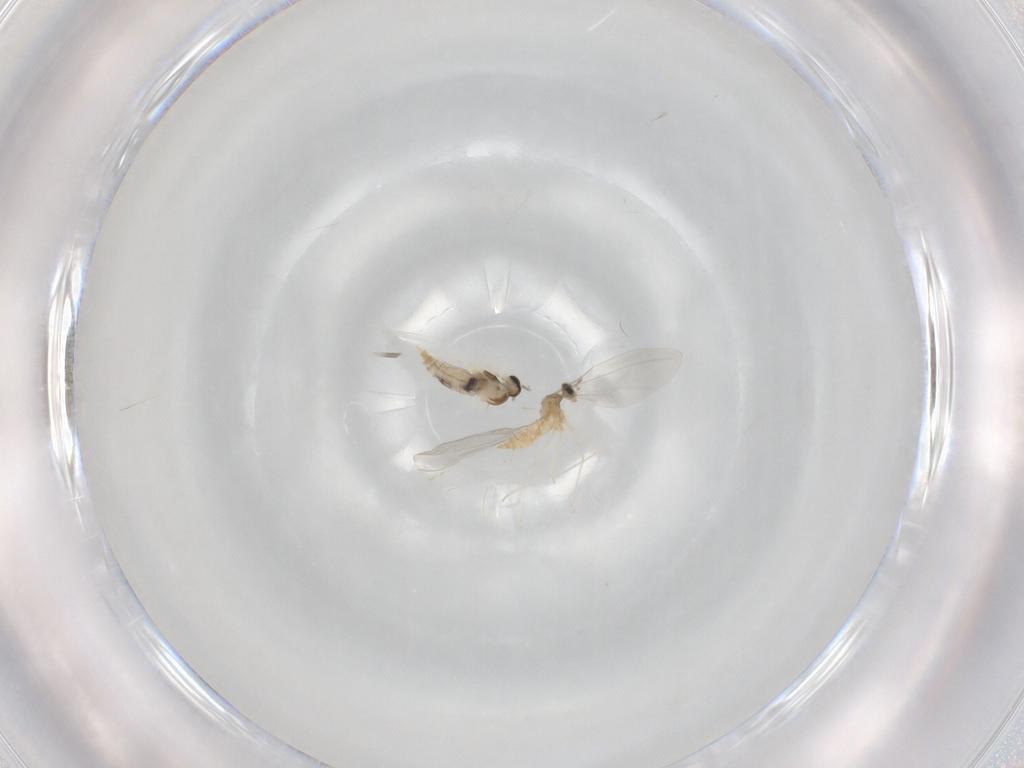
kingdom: Animalia
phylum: Arthropoda
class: Insecta
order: Diptera
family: Cecidomyiidae
